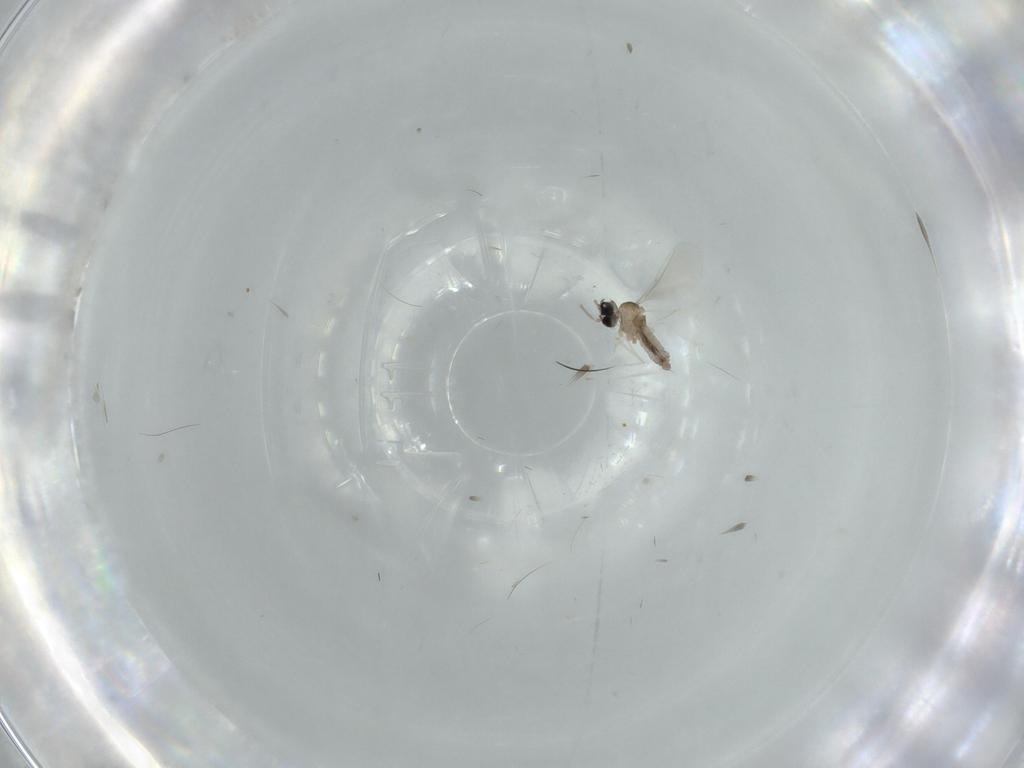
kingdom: Animalia
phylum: Arthropoda
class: Insecta
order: Diptera
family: Cecidomyiidae
